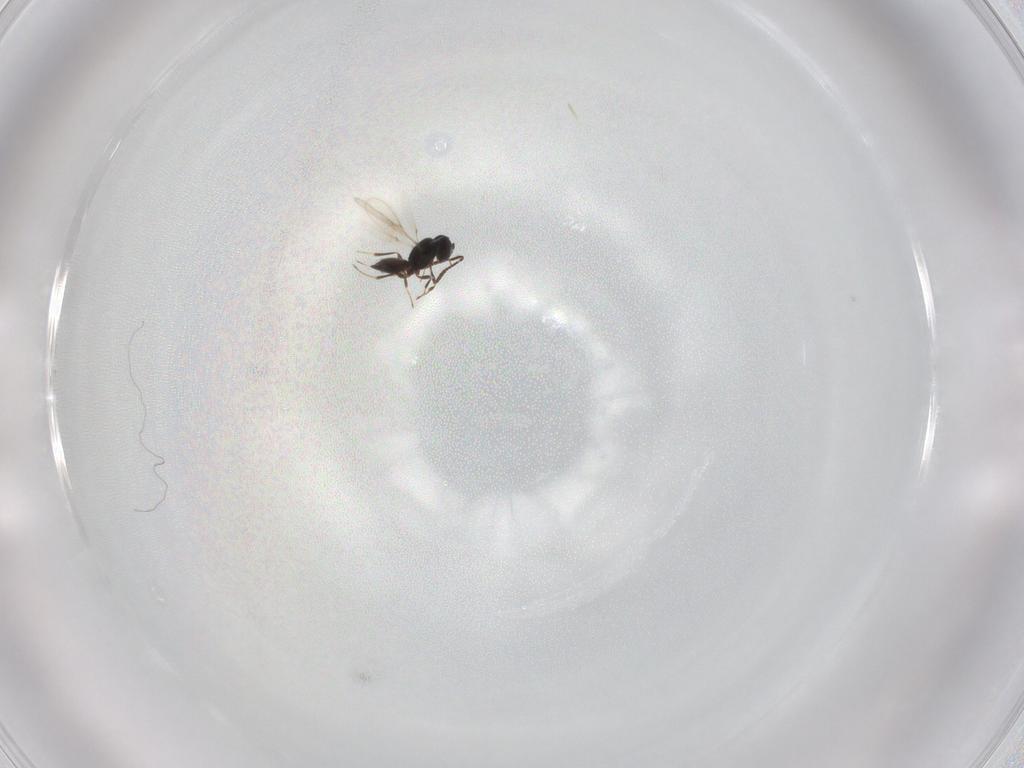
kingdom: Animalia
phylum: Arthropoda
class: Insecta
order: Hymenoptera
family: Scelionidae
